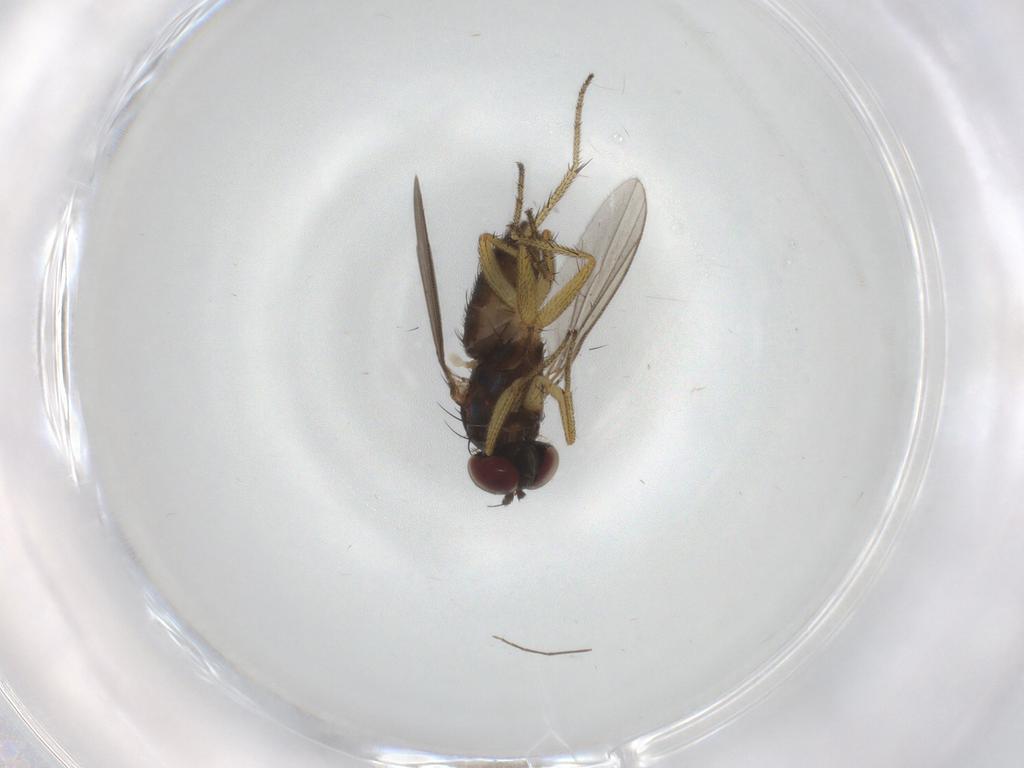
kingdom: Animalia
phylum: Arthropoda
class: Insecta
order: Diptera
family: Chironomidae
